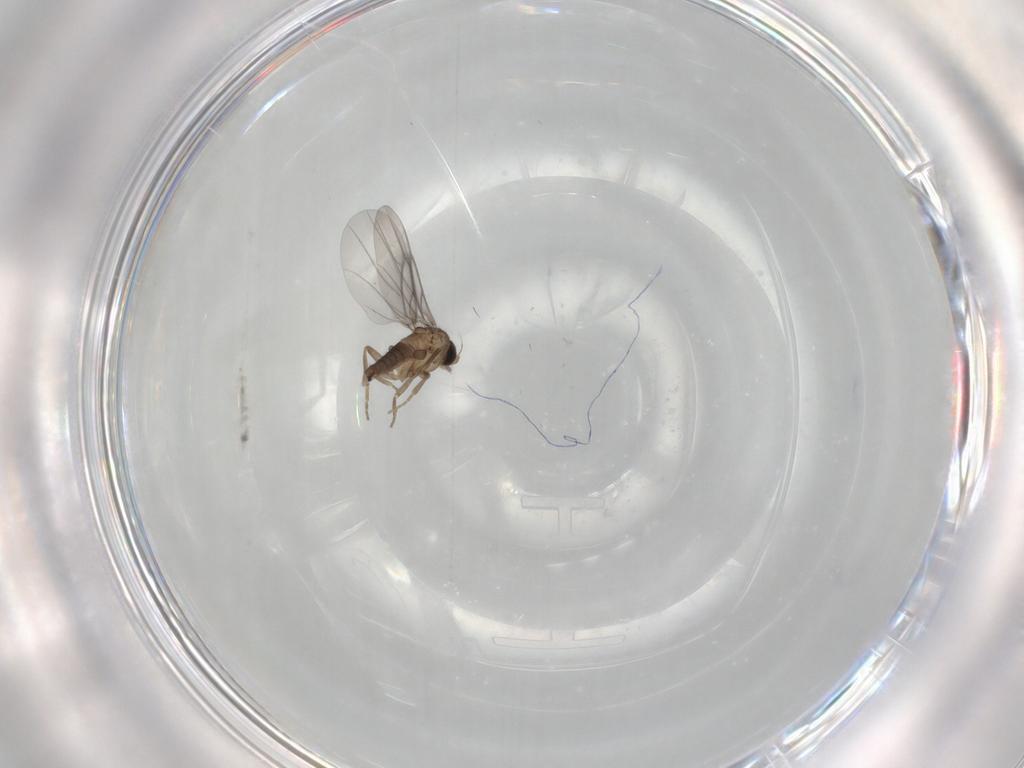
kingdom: Animalia
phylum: Arthropoda
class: Insecta
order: Diptera
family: Cecidomyiidae
